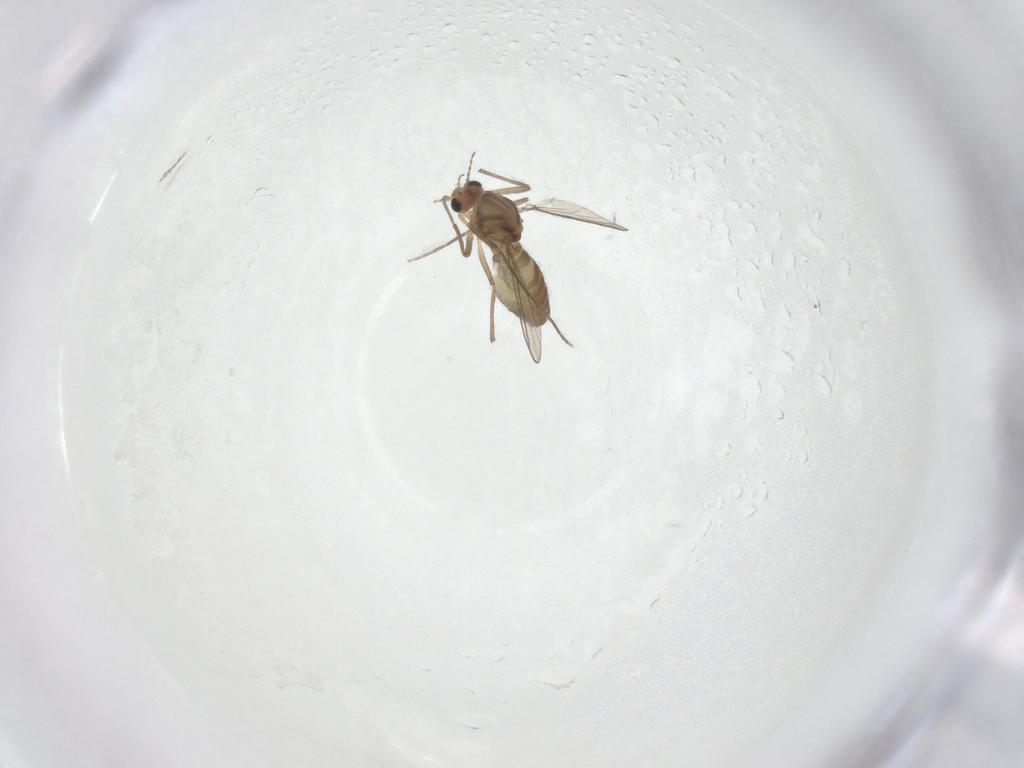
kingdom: Animalia
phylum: Arthropoda
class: Insecta
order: Diptera
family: Chironomidae
